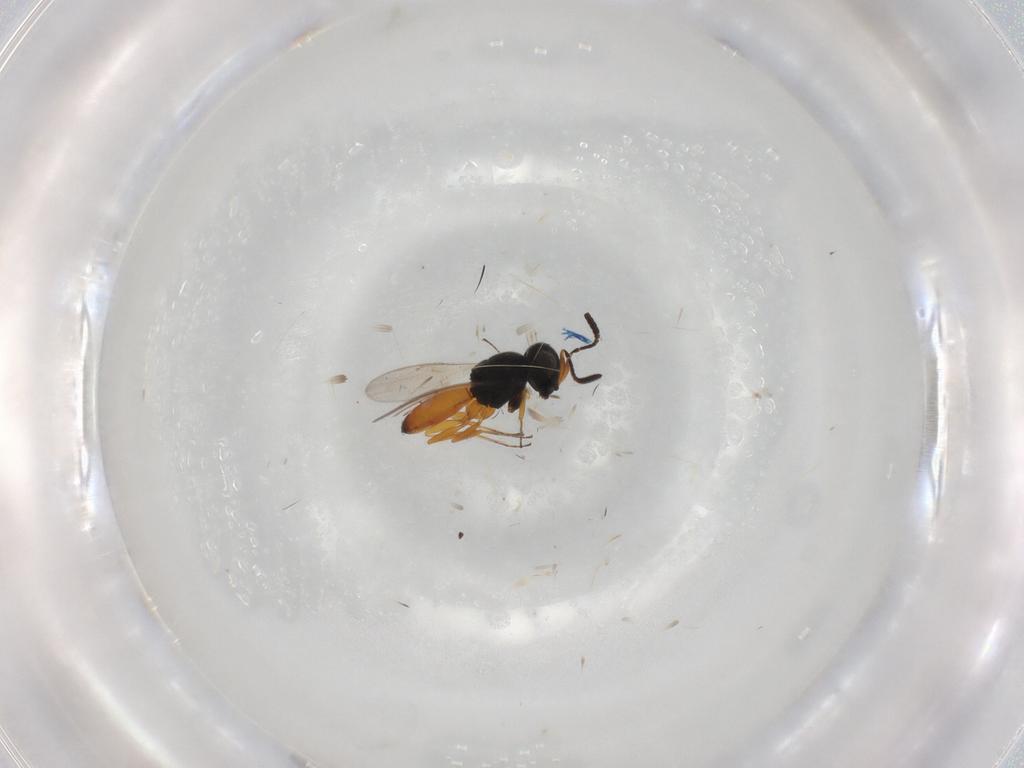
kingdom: Animalia
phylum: Arthropoda
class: Insecta
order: Hymenoptera
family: Scelionidae
